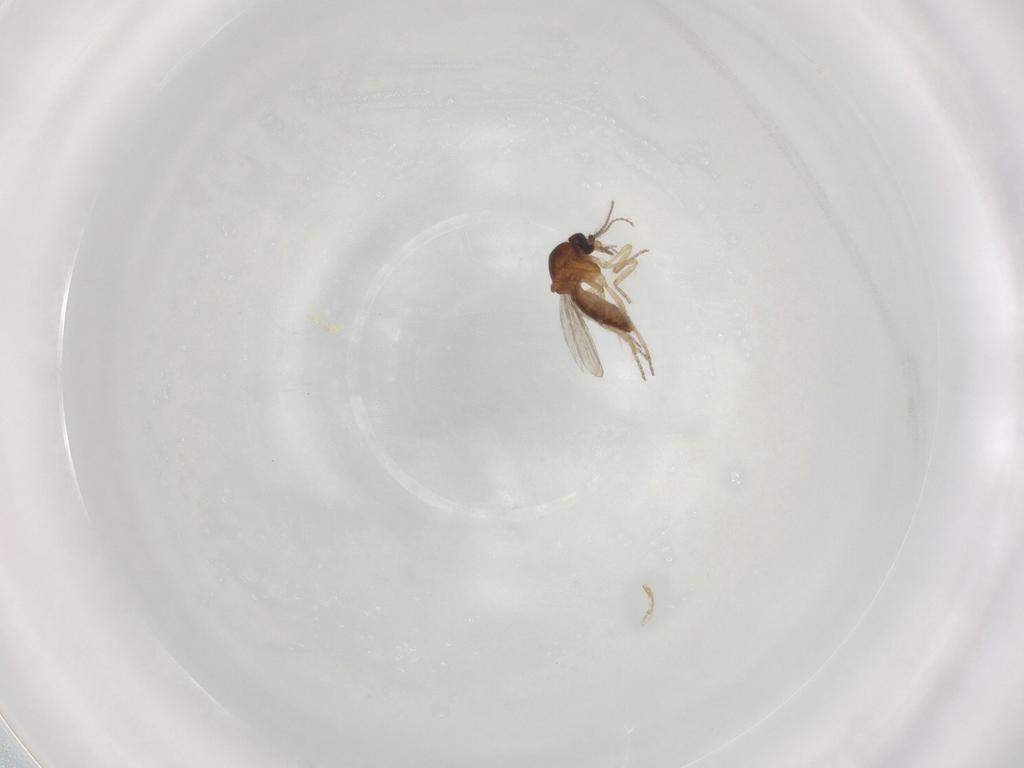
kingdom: Animalia
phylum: Arthropoda
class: Insecta
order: Diptera
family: Ceratopogonidae
